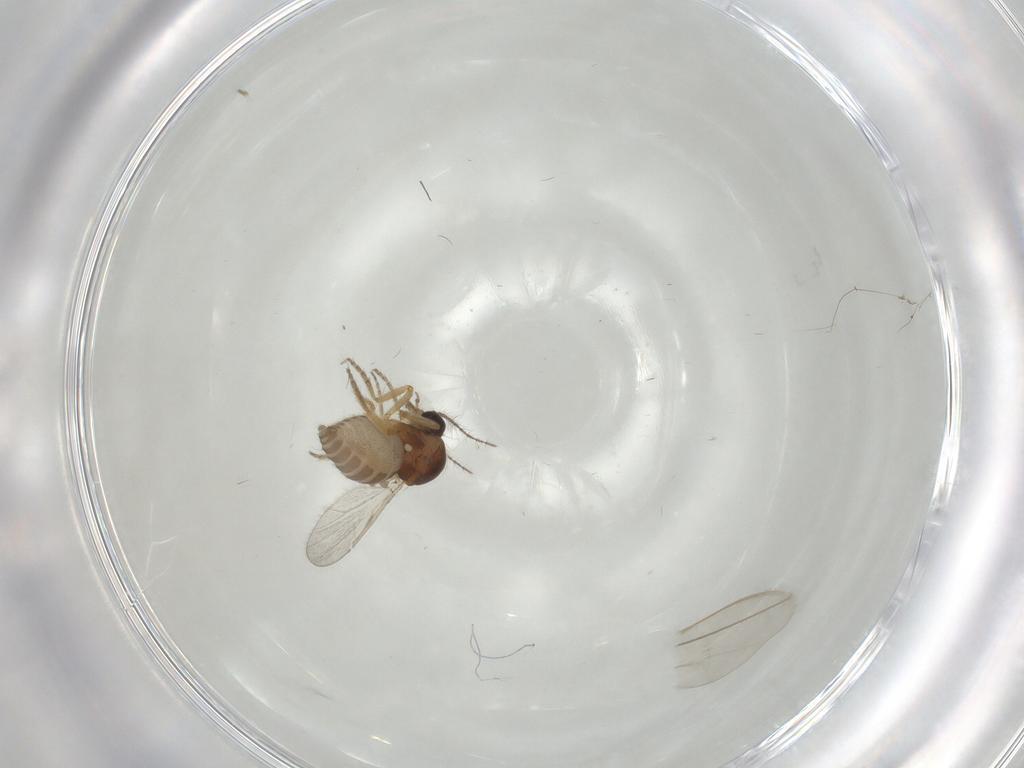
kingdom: Animalia
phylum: Arthropoda
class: Insecta
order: Diptera
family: Ceratopogonidae
